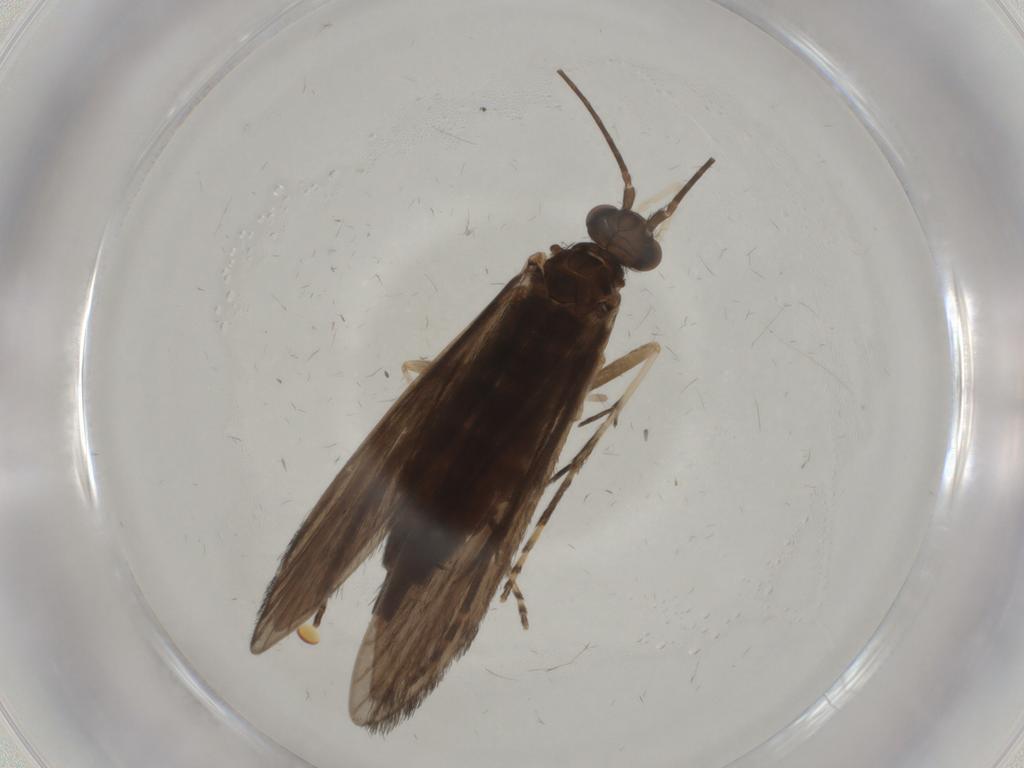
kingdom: Animalia
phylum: Arthropoda
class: Insecta
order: Trichoptera
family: Xiphocentronidae
